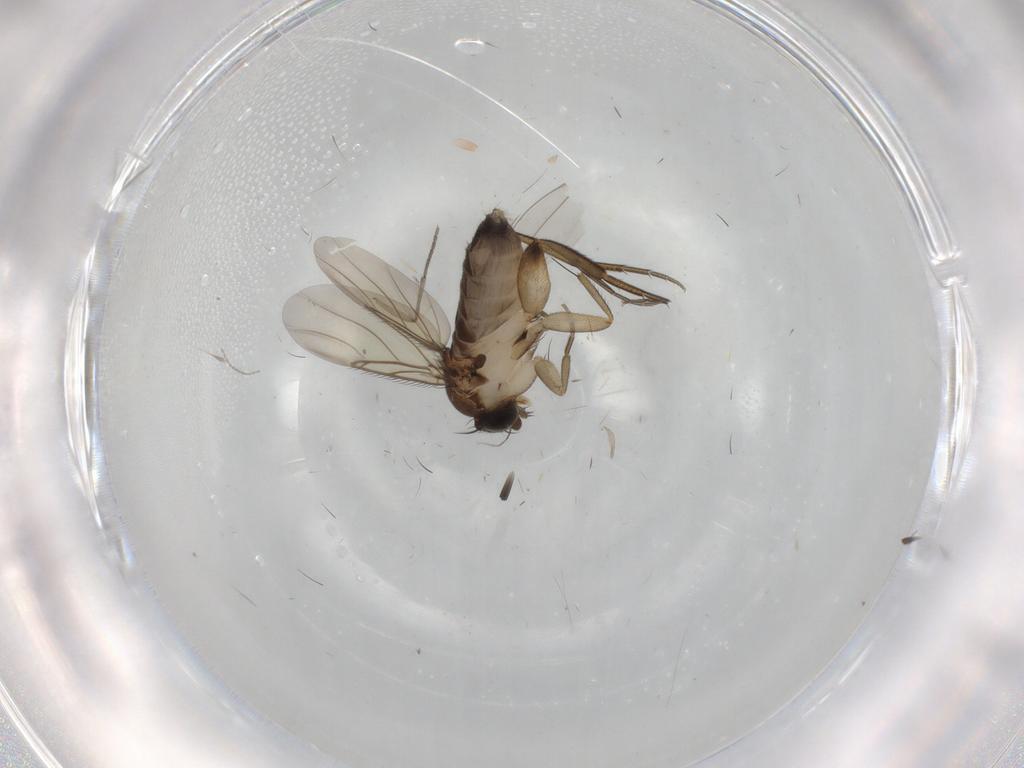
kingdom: Animalia
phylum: Arthropoda
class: Insecta
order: Diptera
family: Phoridae
